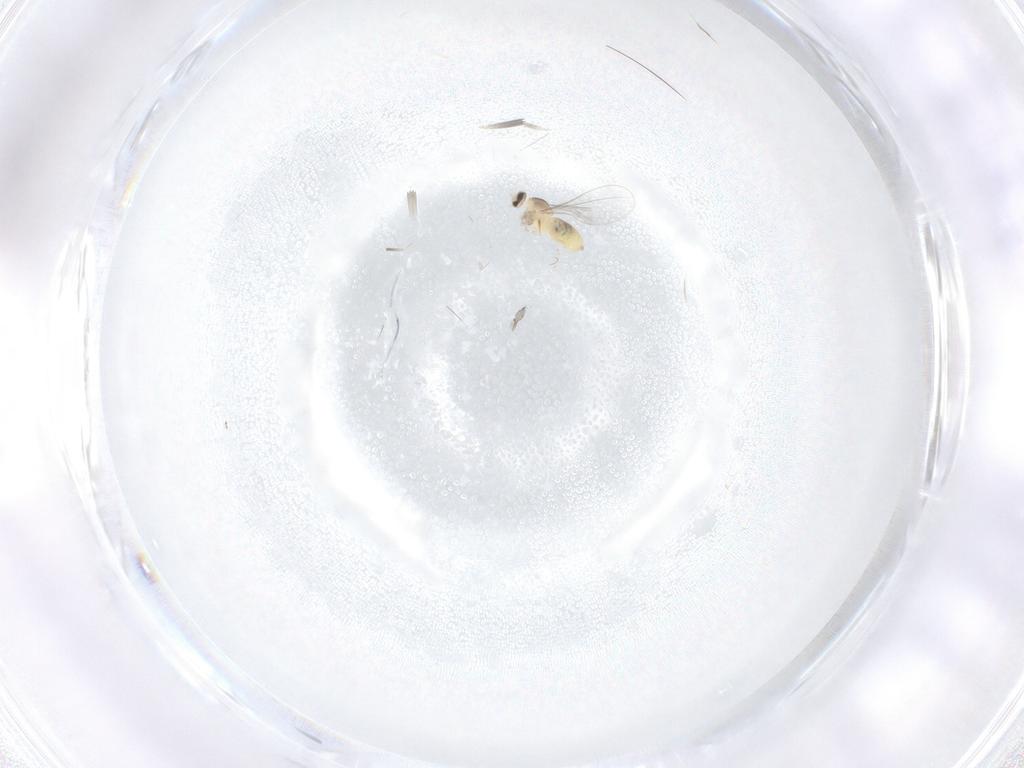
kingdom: Animalia
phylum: Arthropoda
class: Insecta
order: Diptera
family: Cecidomyiidae
